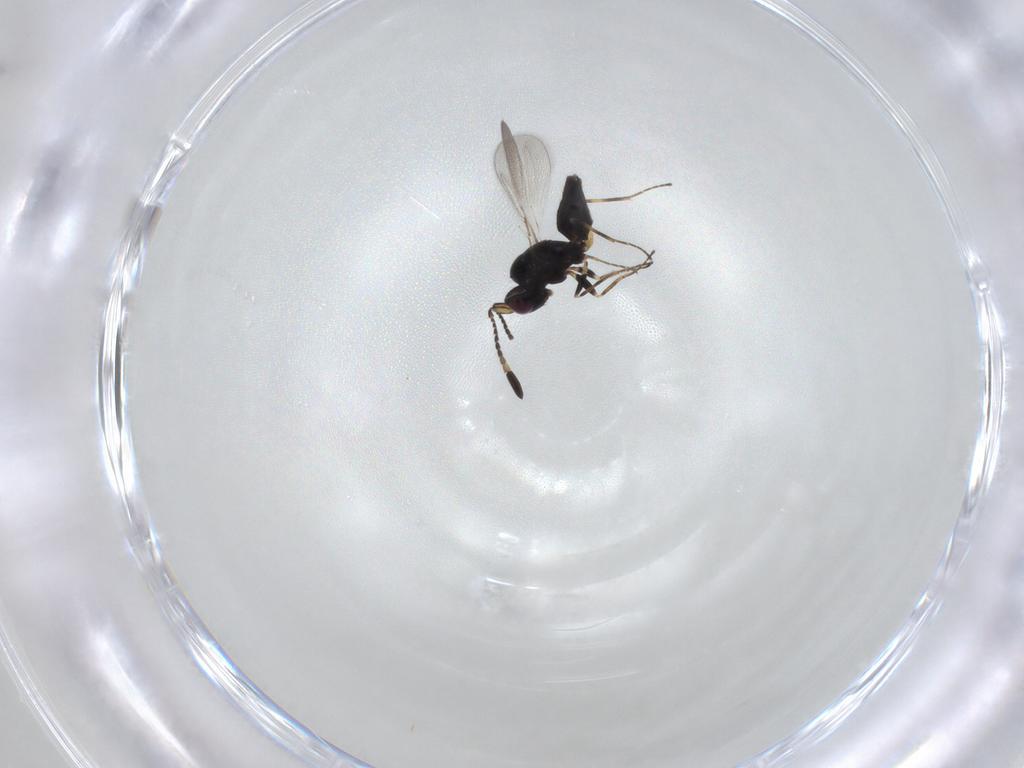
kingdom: Animalia
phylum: Arthropoda
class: Insecta
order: Hymenoptera
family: Mymaridae
